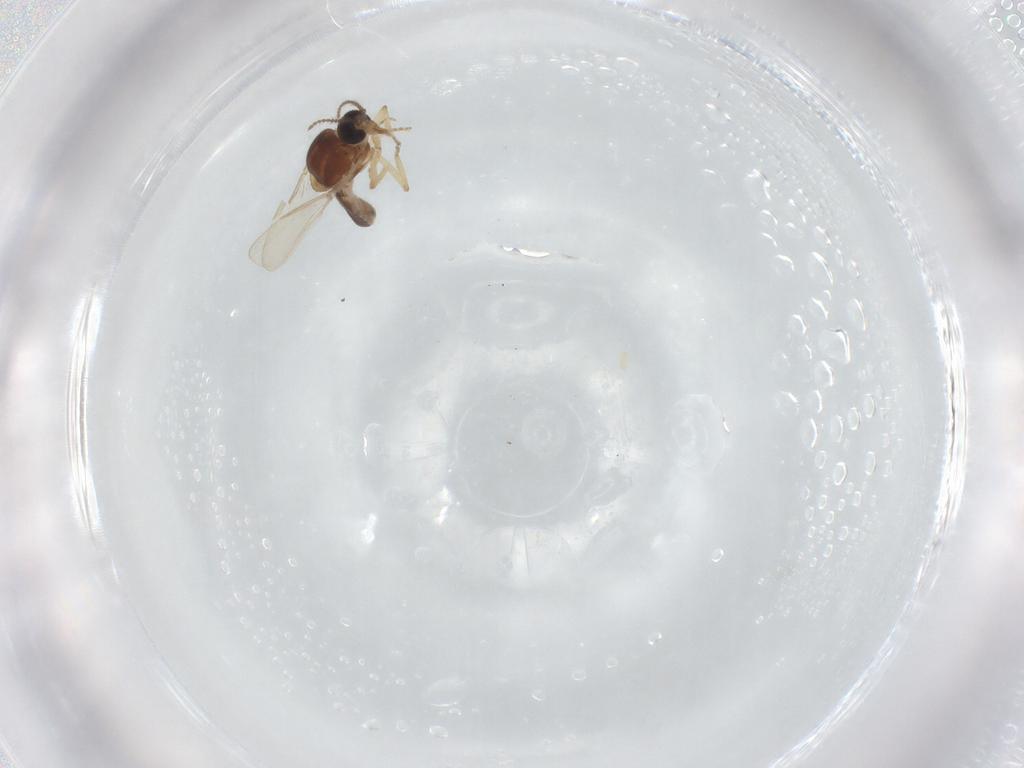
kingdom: Animalia
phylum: Arthropoda
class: Insecta
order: Diptera
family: Ceratopogonidae
